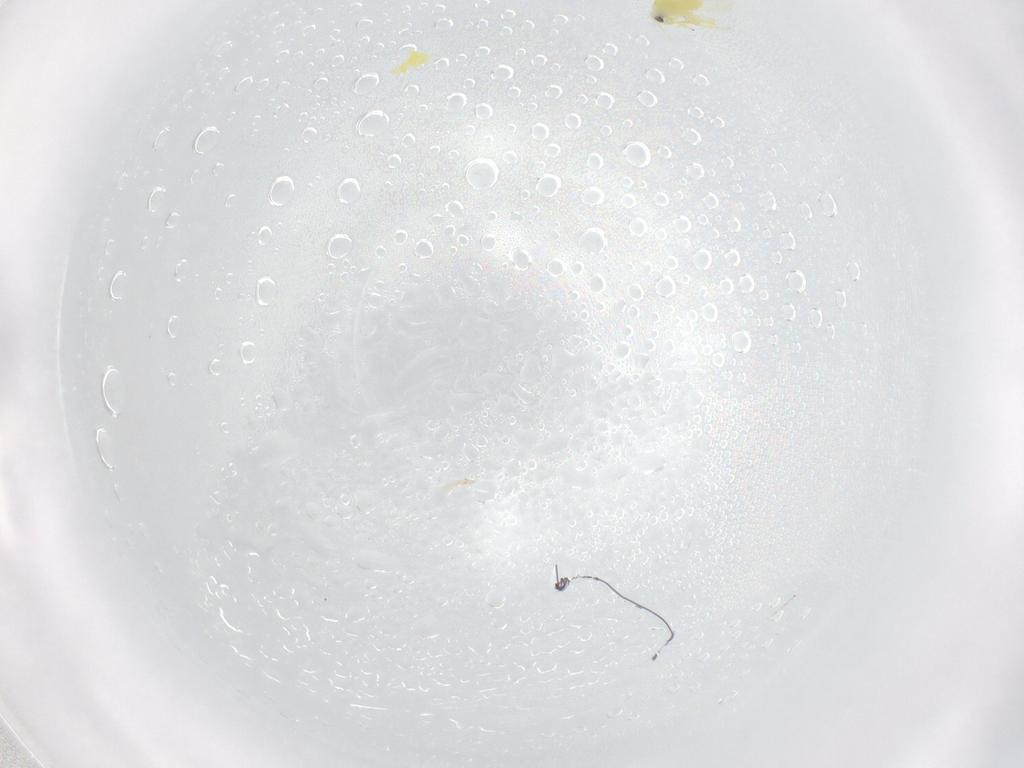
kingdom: Animalia
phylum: Arthropoda
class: Insecta
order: Hemiptera
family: Aleyrodidae
